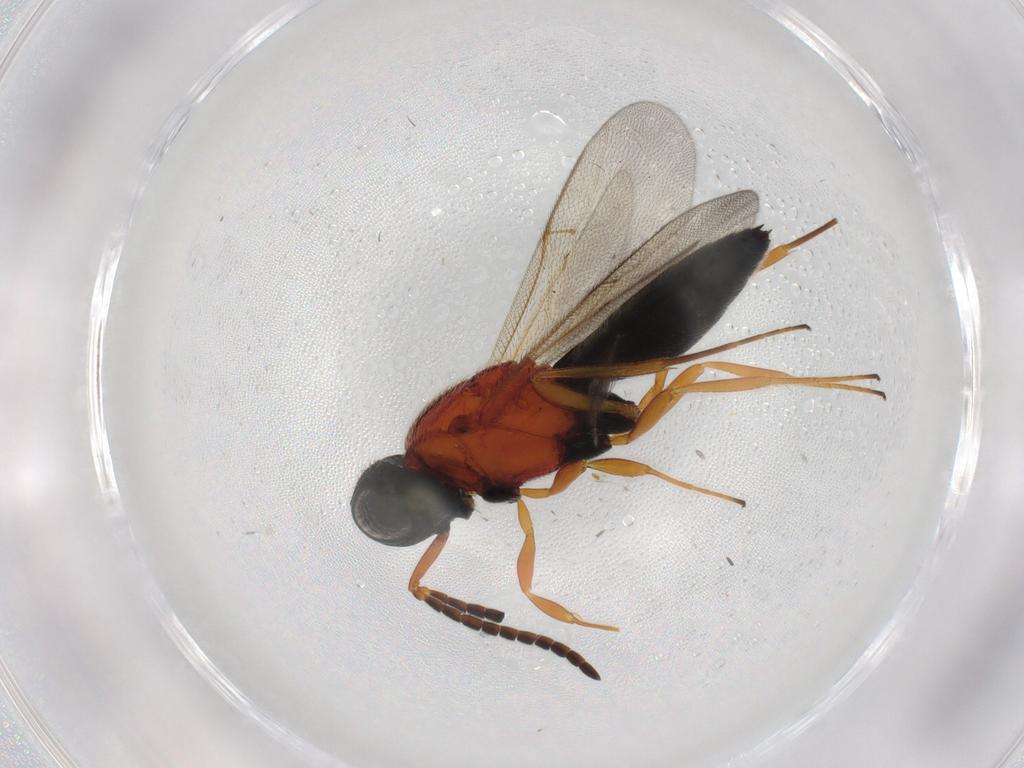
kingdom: Animalia
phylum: Arthropoda
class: Insecta
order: Hymenoptera
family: Scelionidae
